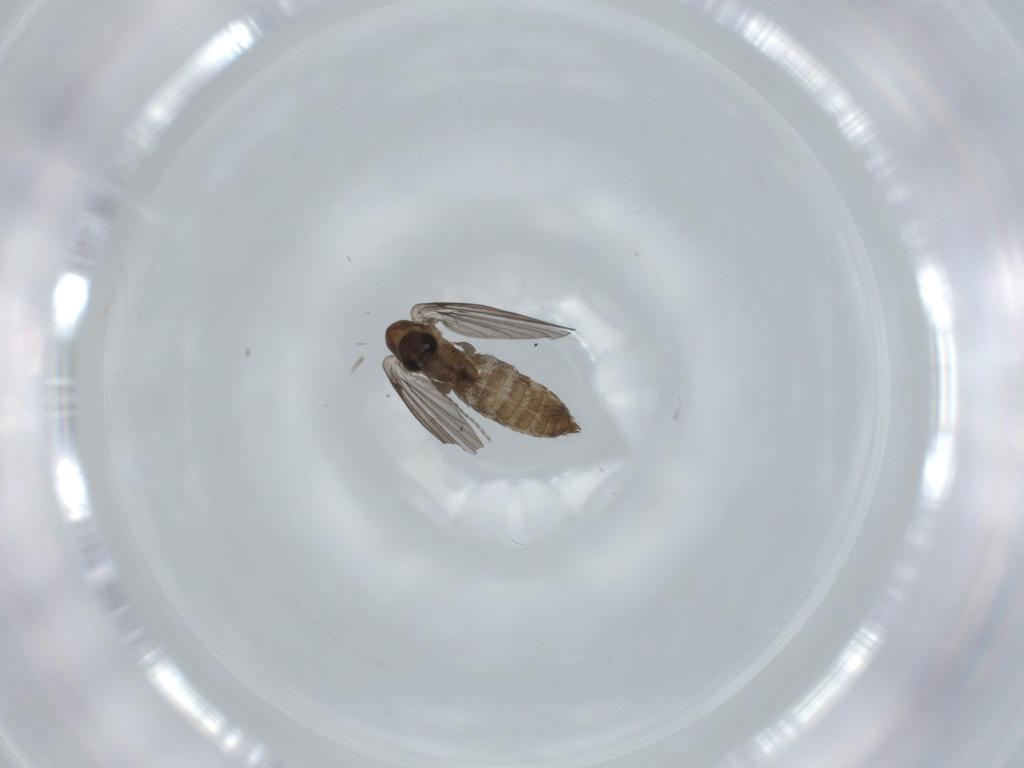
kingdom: Animalia
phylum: Arthropoda
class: Insecta
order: Diptera
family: Psychodidae
